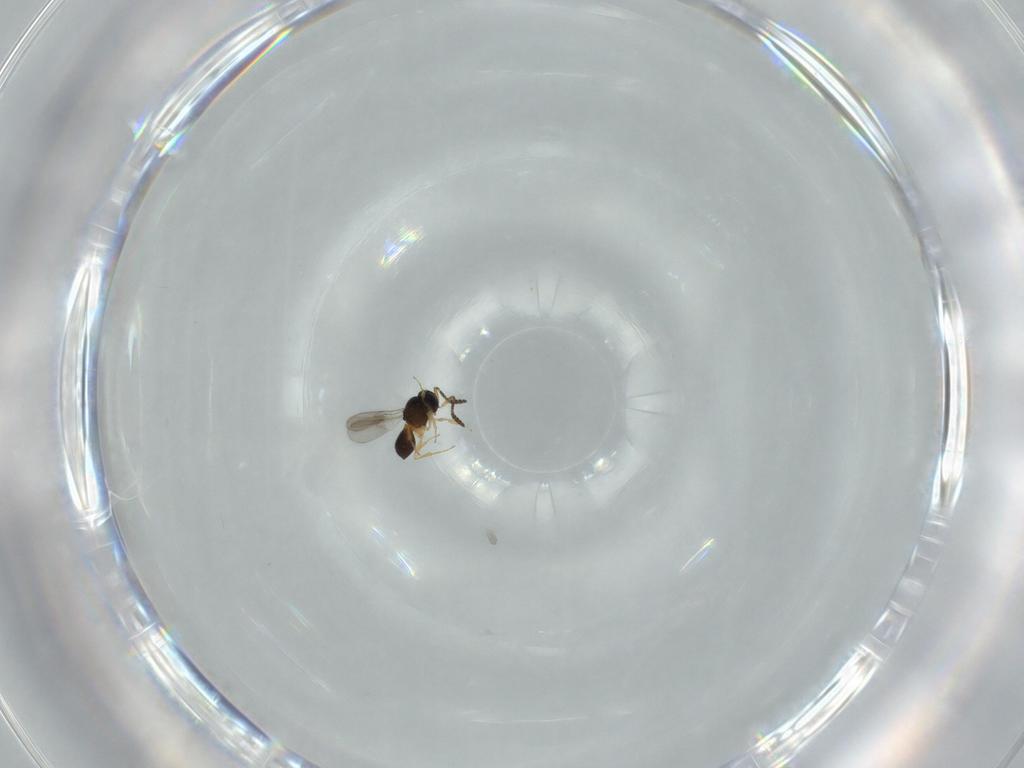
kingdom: Animalia
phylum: Arthropoda
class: Insecta
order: Hymenoptera
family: Scelionidae
